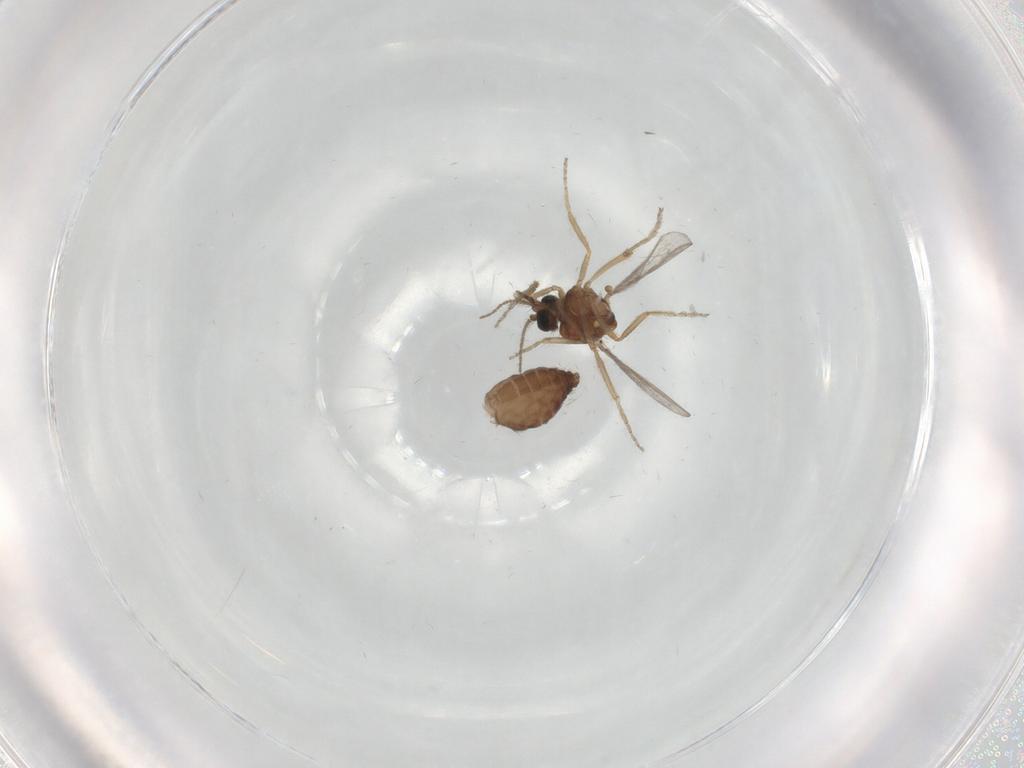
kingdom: Animalia
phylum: Arthropoda
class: Insecta
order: Diptera
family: Ceratopogonidae
